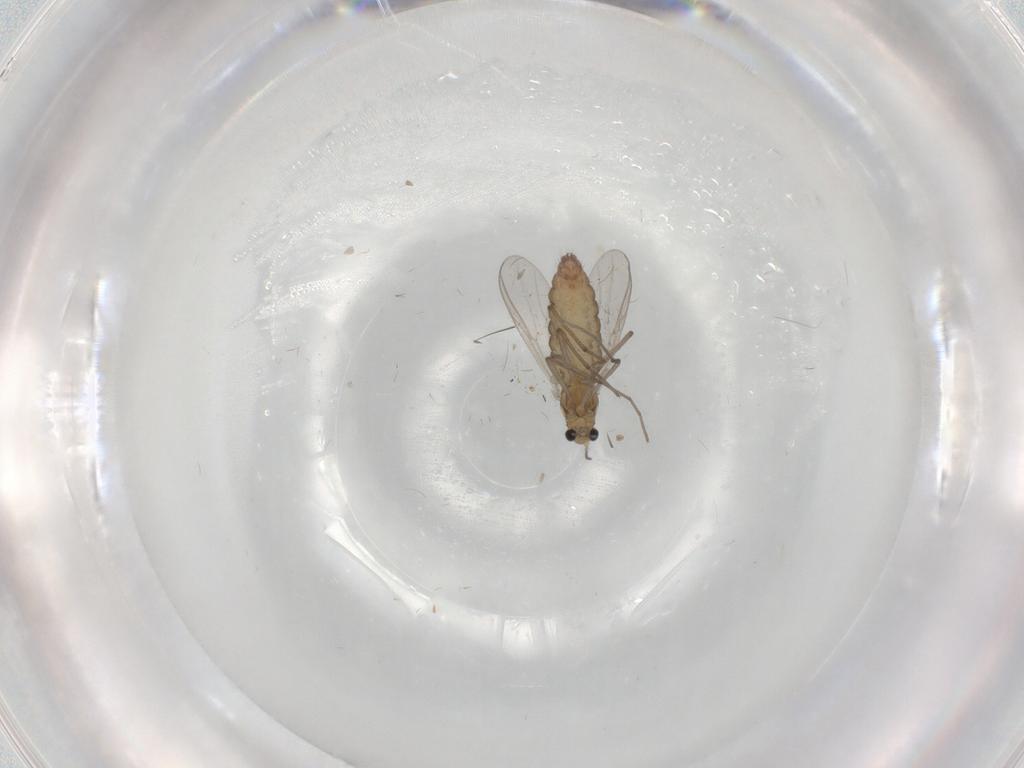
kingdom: Animalia
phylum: Arthropoda
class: Insecta
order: Diptera
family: Chironomidae
